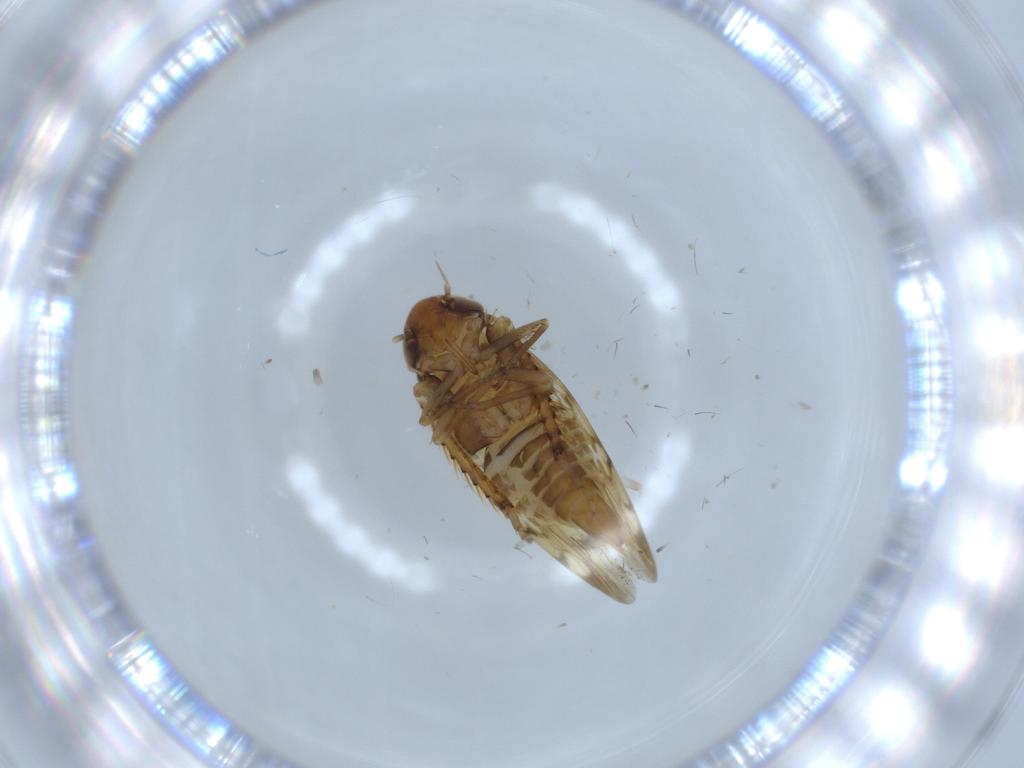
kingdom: Animalia
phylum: Arthropoda
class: Insecta
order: Hemiptera
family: Cicadellidae
